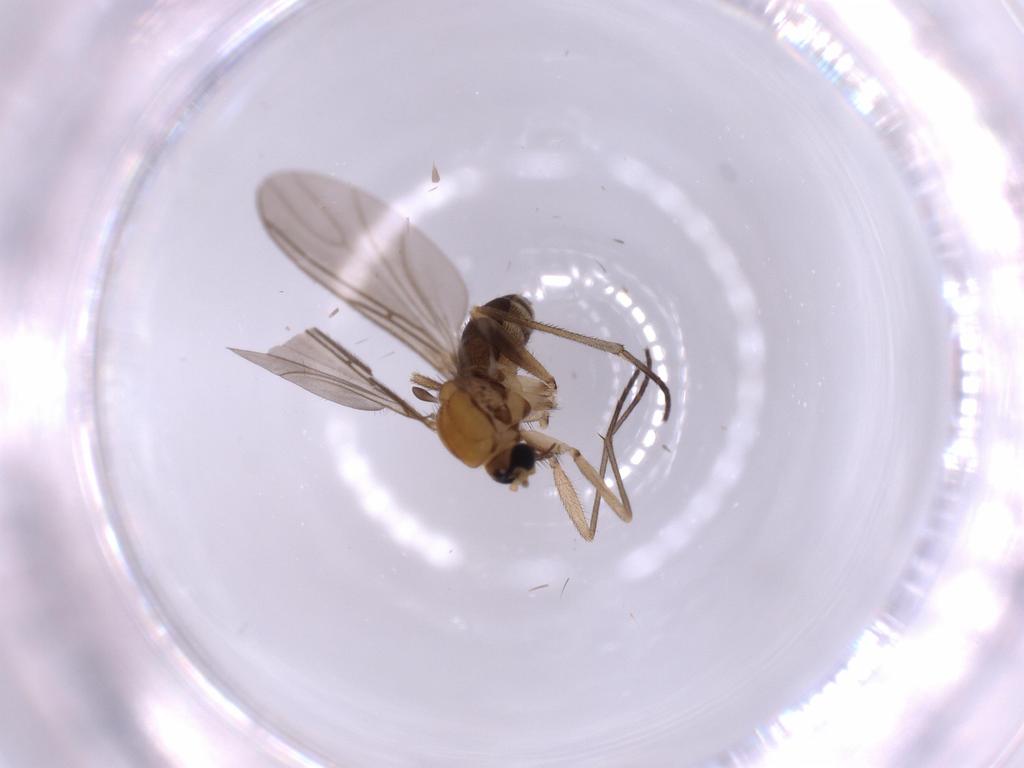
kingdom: Animalia
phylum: Arthropoda
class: Insecta
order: Diptera
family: Sciaridae
